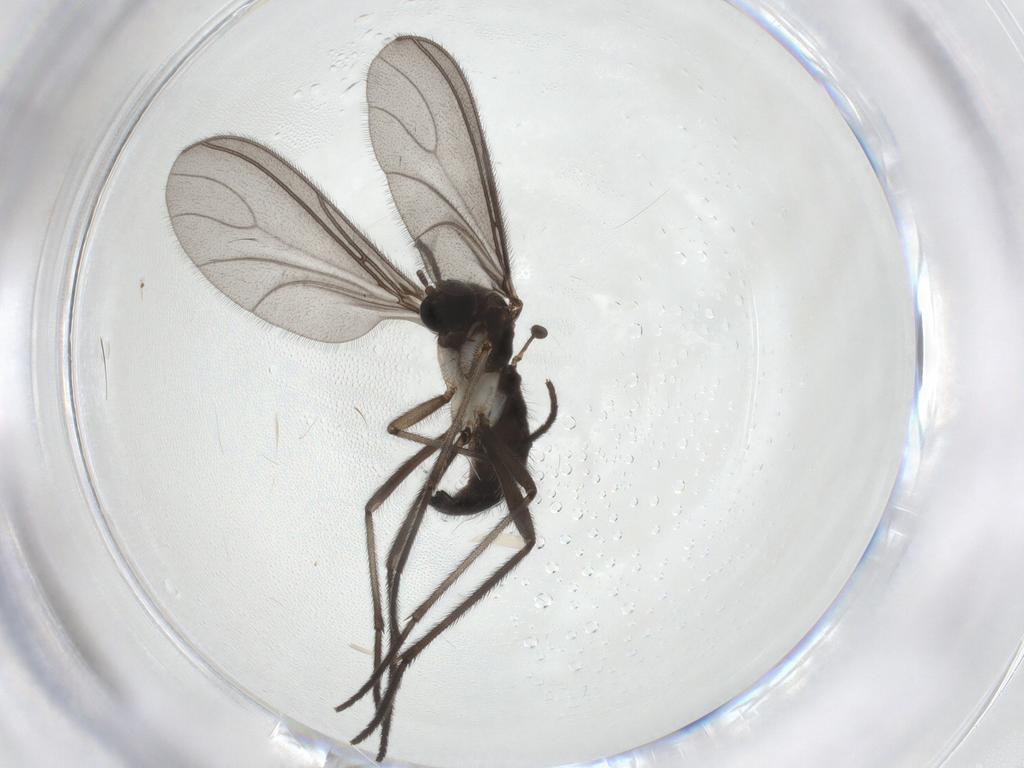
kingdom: Animalia
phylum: Arthropoda
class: Insecta
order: Diptera
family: Sciaridae
